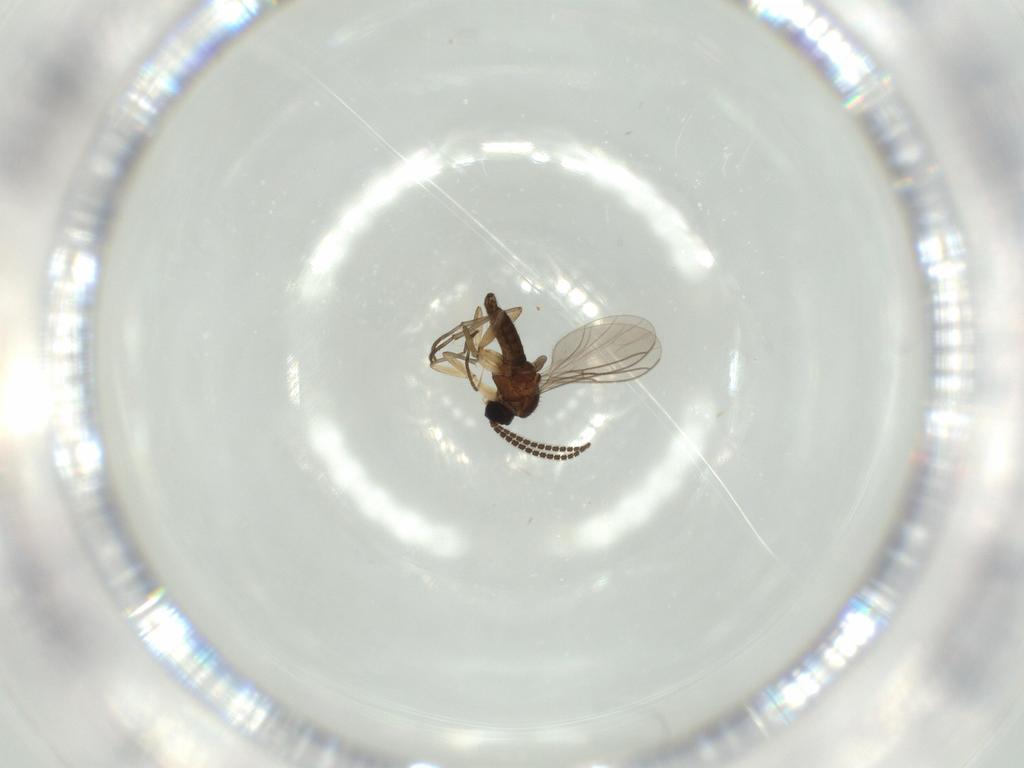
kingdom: Animalia
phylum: Arthropoda
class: Insecta
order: Diptera
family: Sciaridae
